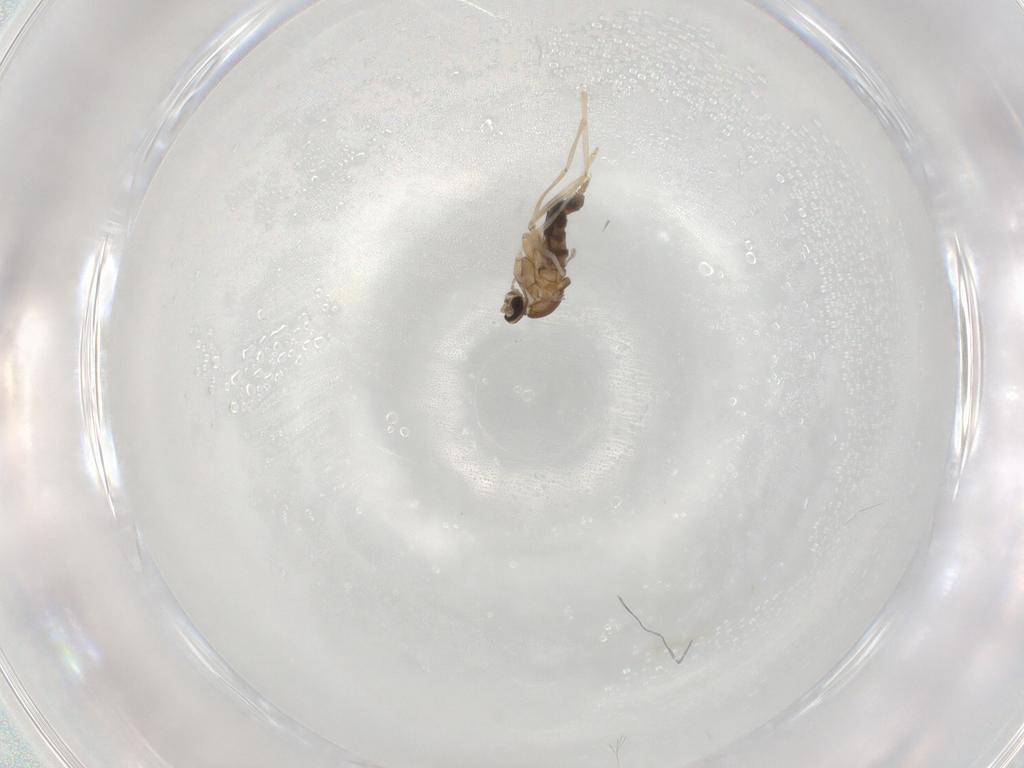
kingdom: Animalia
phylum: Arthropoda
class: Insecta
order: Diptera
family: Cecidomyiidae
